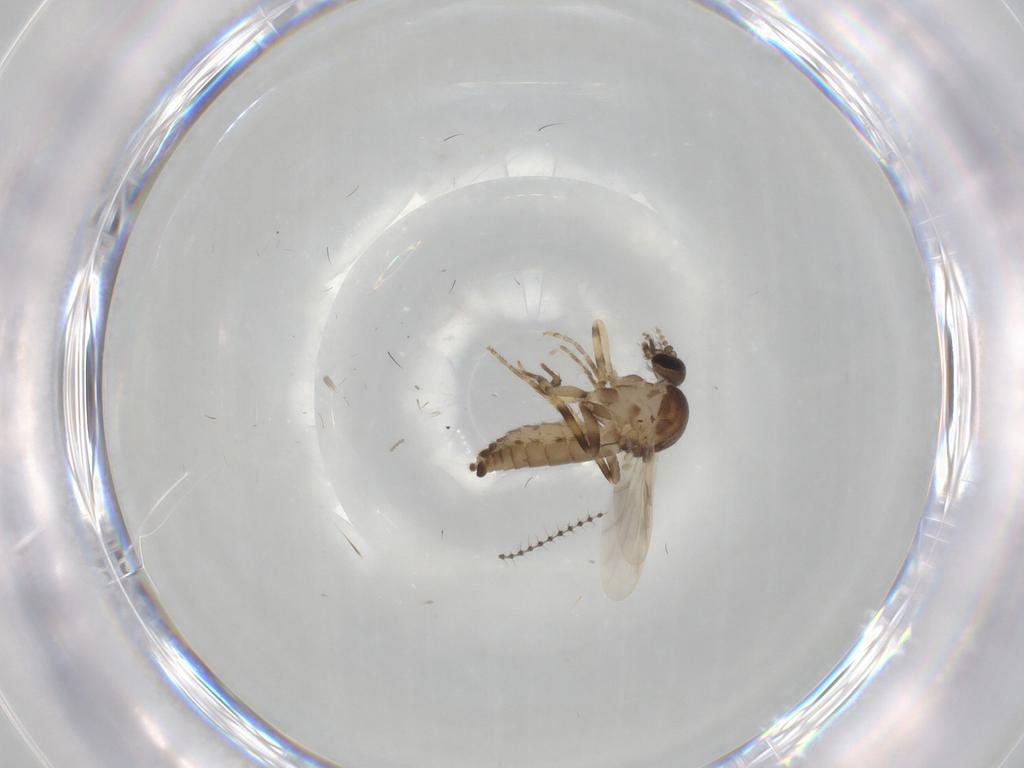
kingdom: Animalia
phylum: Arthropoda
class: Insecta
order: Diptera
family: Ceratopogonidae
